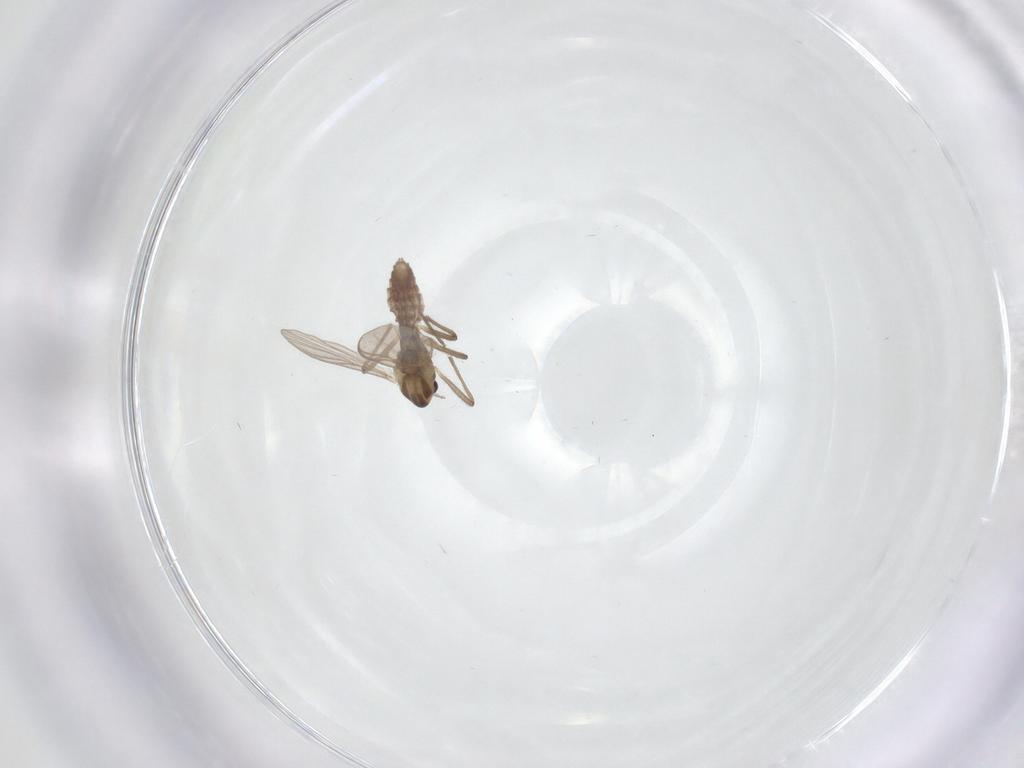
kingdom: Animalia
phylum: Arthropoda
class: Insecta
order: Diptera
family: Chironomidae
